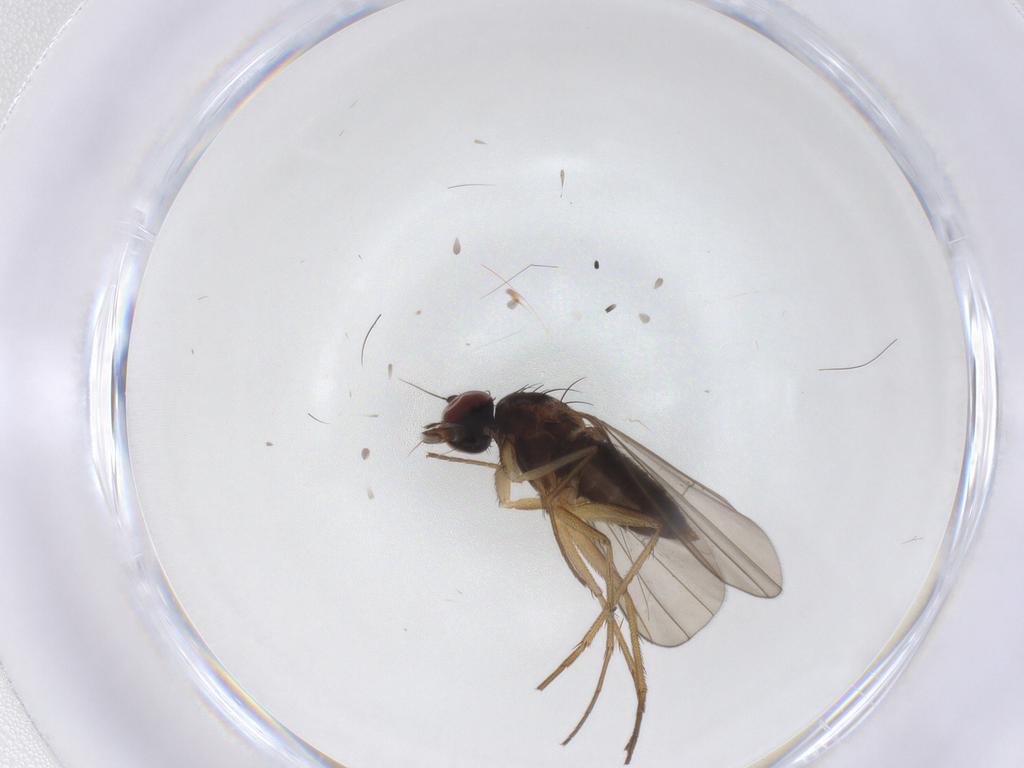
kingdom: Animalia
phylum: Arthropoda
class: Insecta
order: Diptera
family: Dolichopodidae
